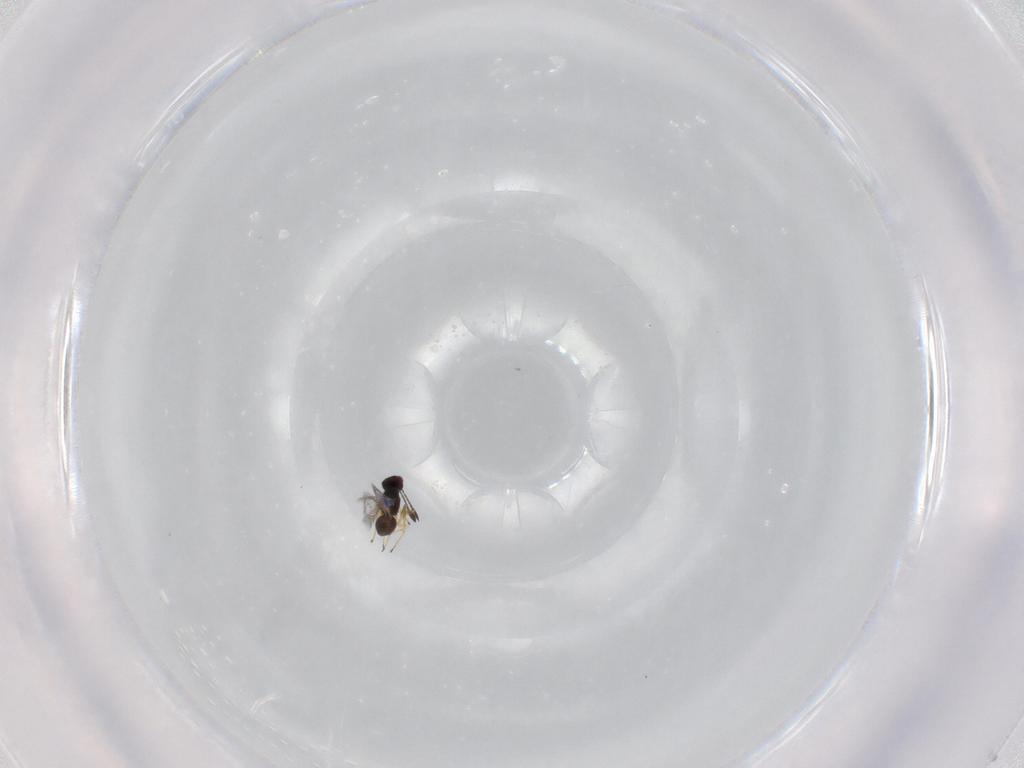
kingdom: Animalia
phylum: Arthropoda
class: Insecta
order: Hymenoptera
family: Mymaridae
